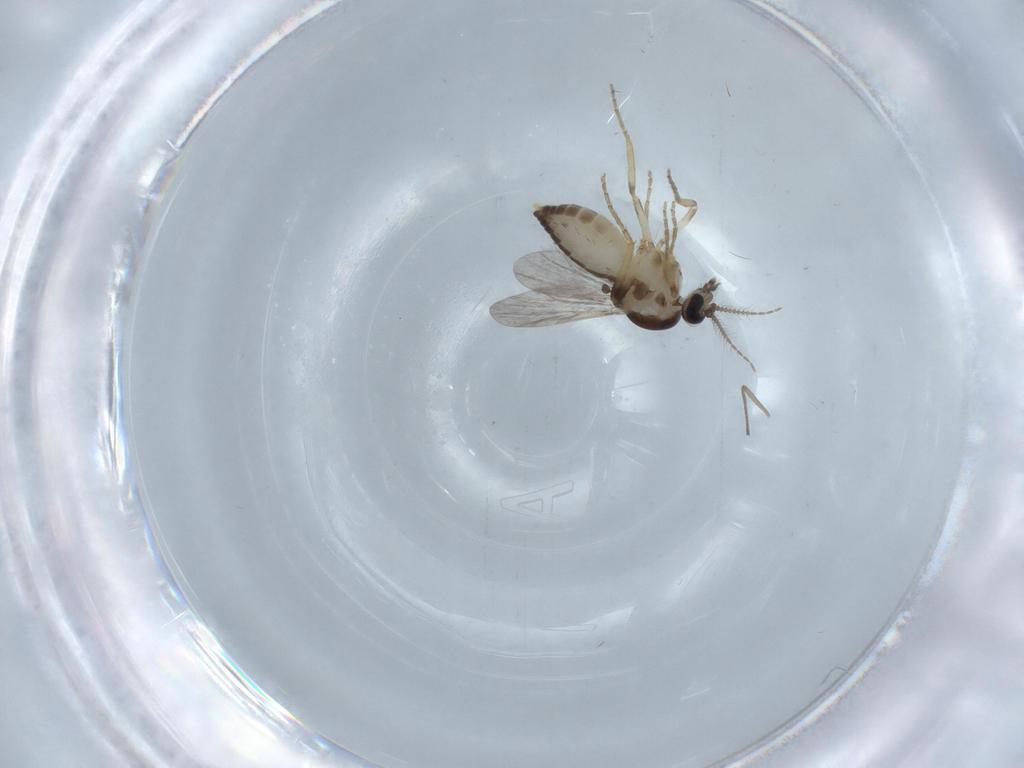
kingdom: Animalia
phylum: Arthropoda
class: Insecta
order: Diptera
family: Ceratopogonidae
